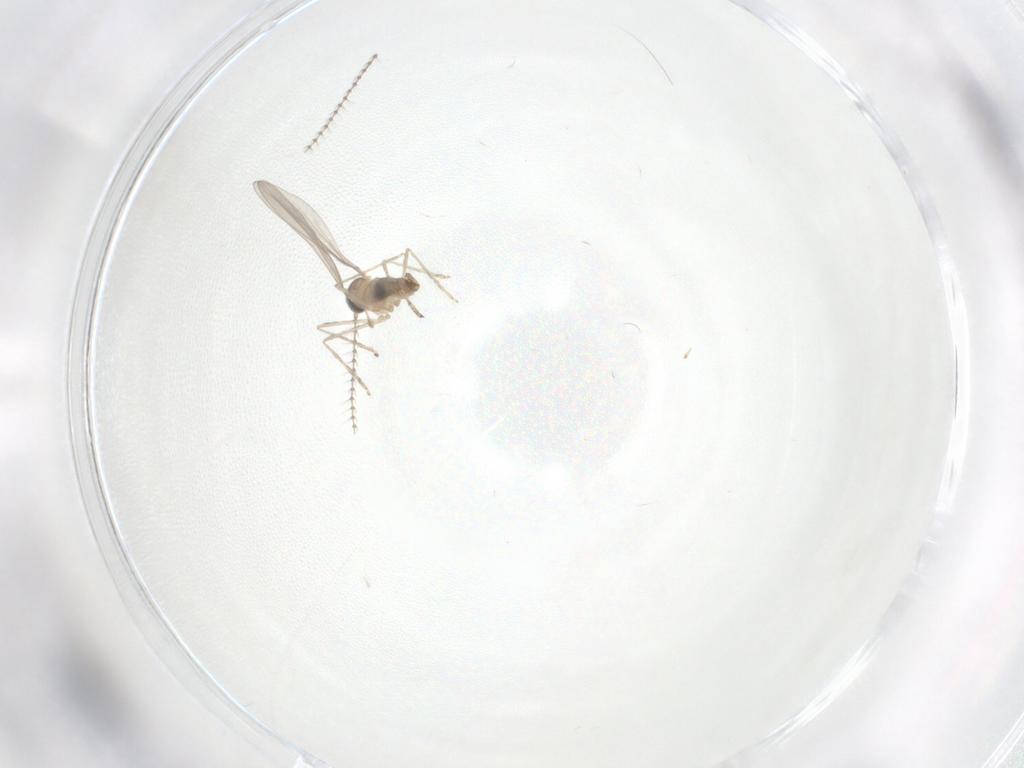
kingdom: Animalia
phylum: Arthropoda
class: Insecta
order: Diptera
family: Cecidomyiidae
